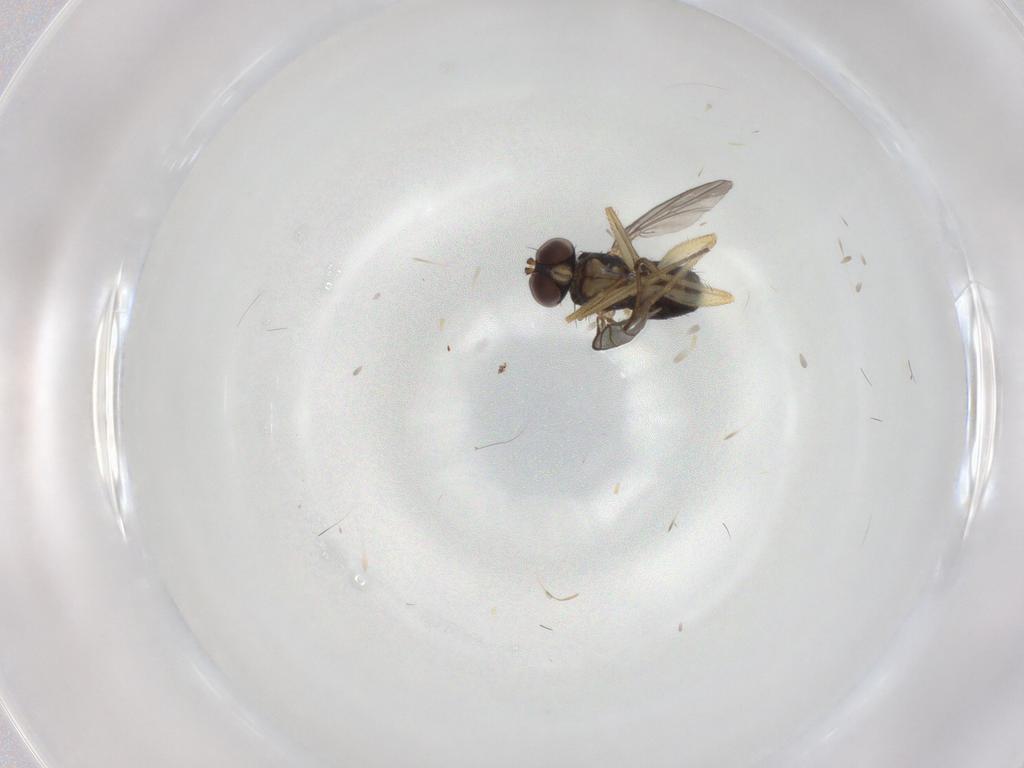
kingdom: Animalia
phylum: Arthropoda
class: Insecta
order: Diptera
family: Dolichopodidae
